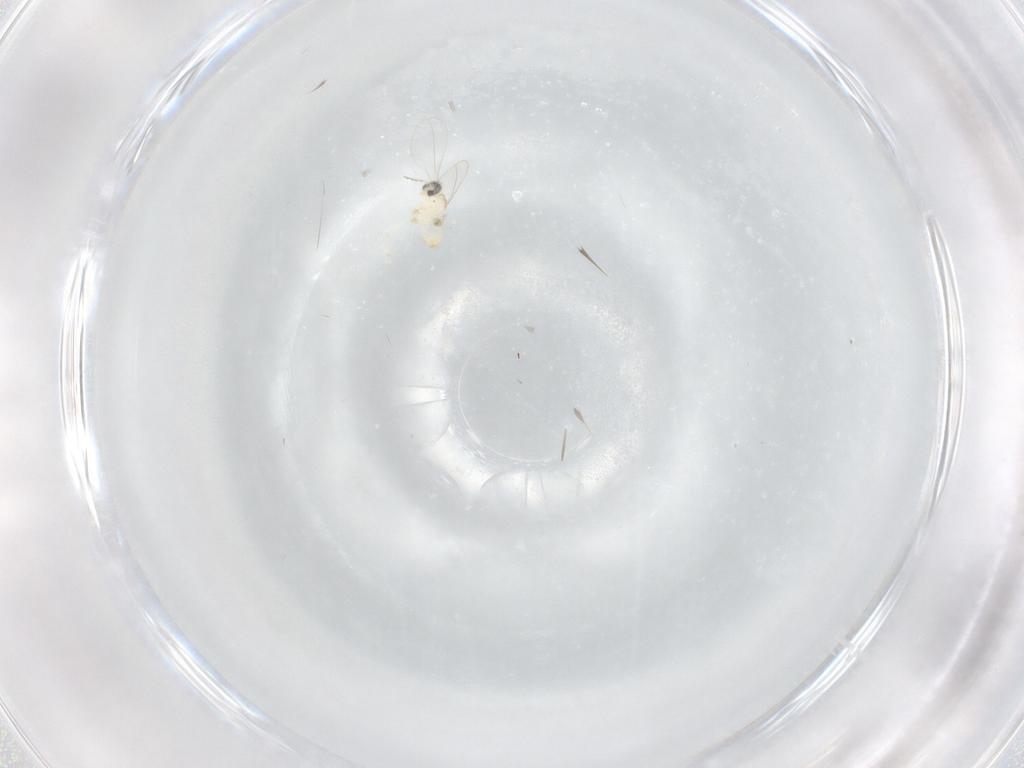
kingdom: Animalia
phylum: Arthropoda
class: Insecta
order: Diptera
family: Cecidomyiidae
